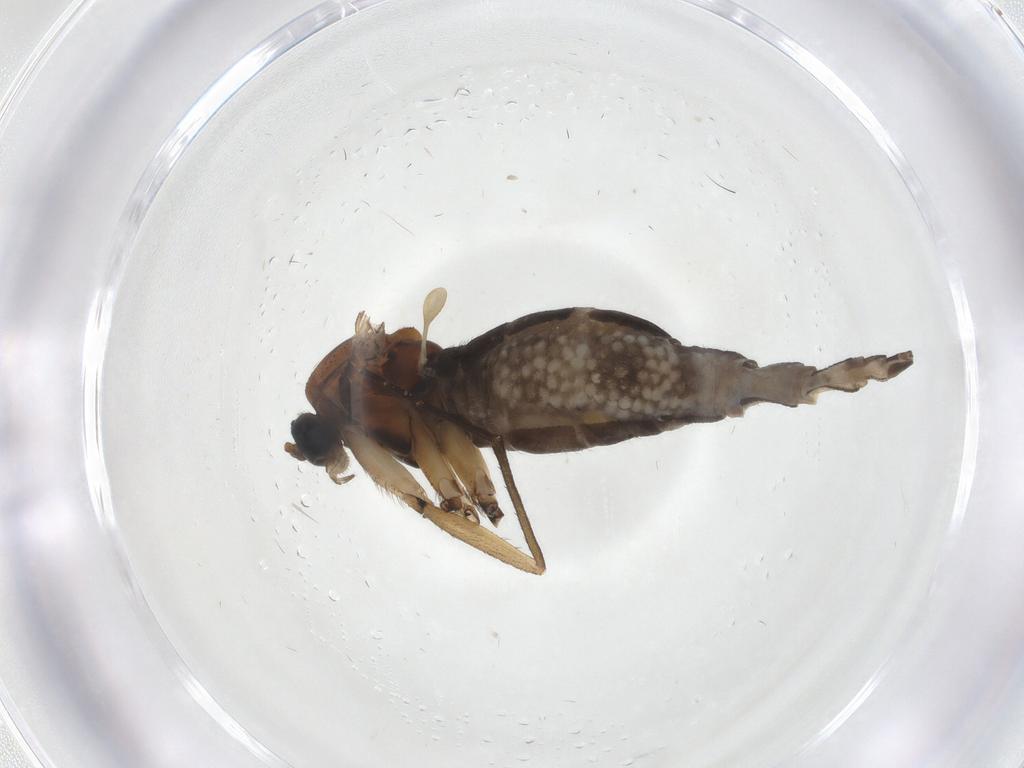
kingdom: Animalia
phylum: Arthropoda
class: Insecta
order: Diptera
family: Sciaridae
